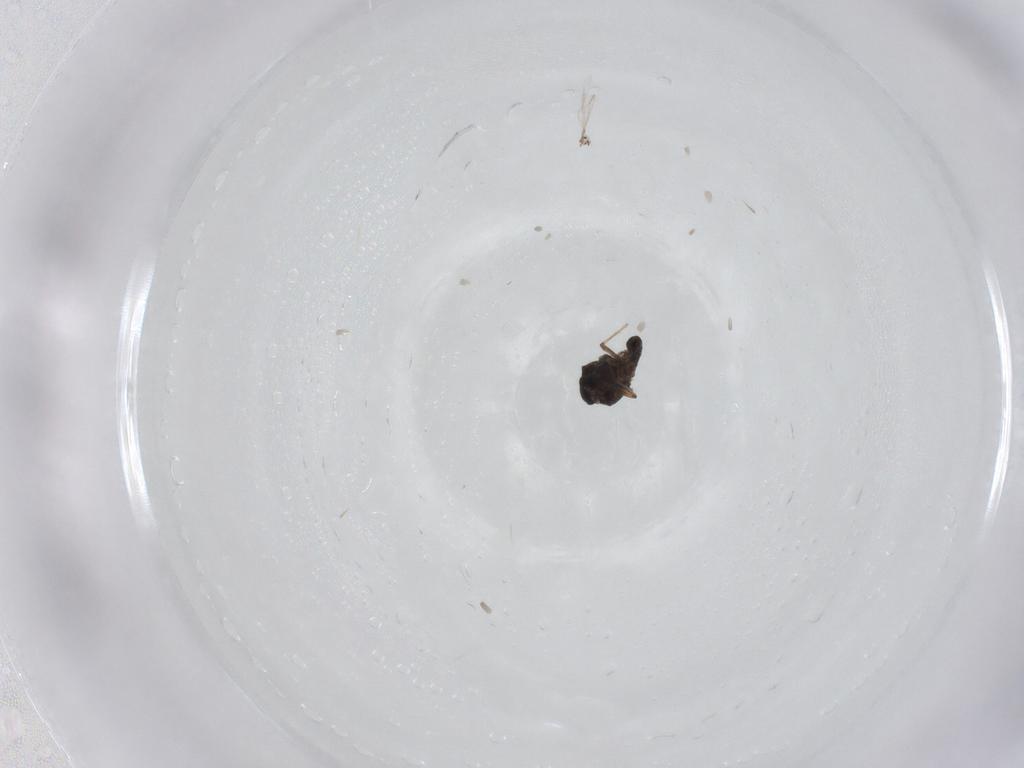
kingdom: Animalia
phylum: Arthropoda
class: Insecta
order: Diptera
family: Ceratopogonidae
